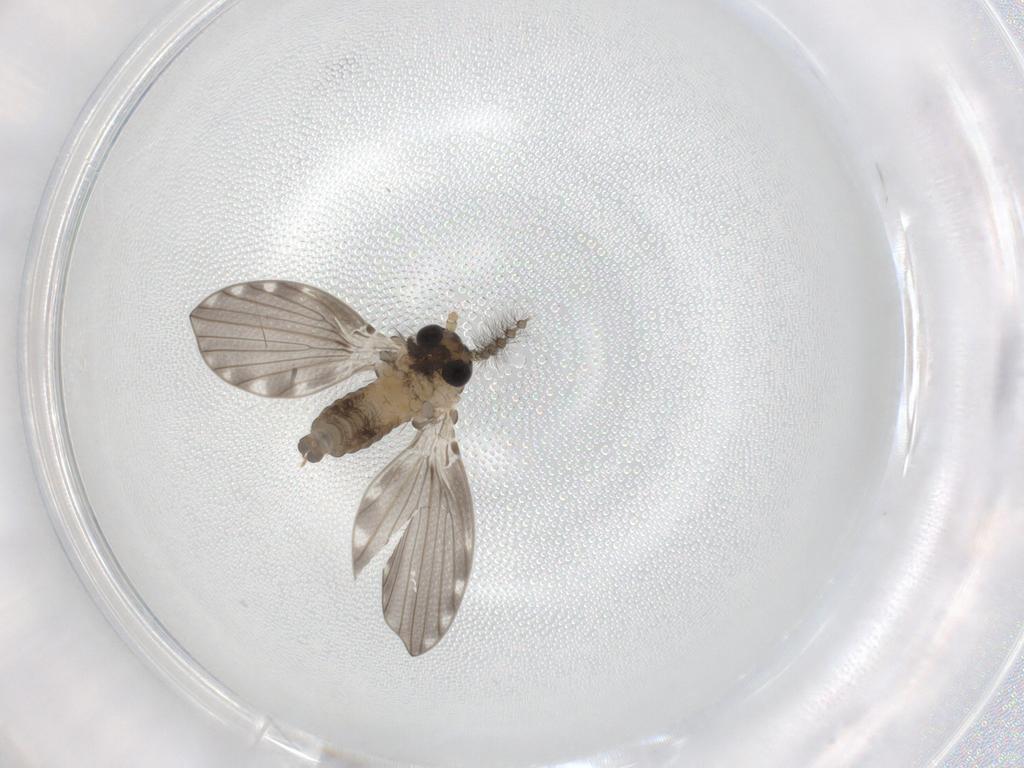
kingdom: Animalia
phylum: Arthropoda
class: Insecta
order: Diptera
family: Sciaridae
